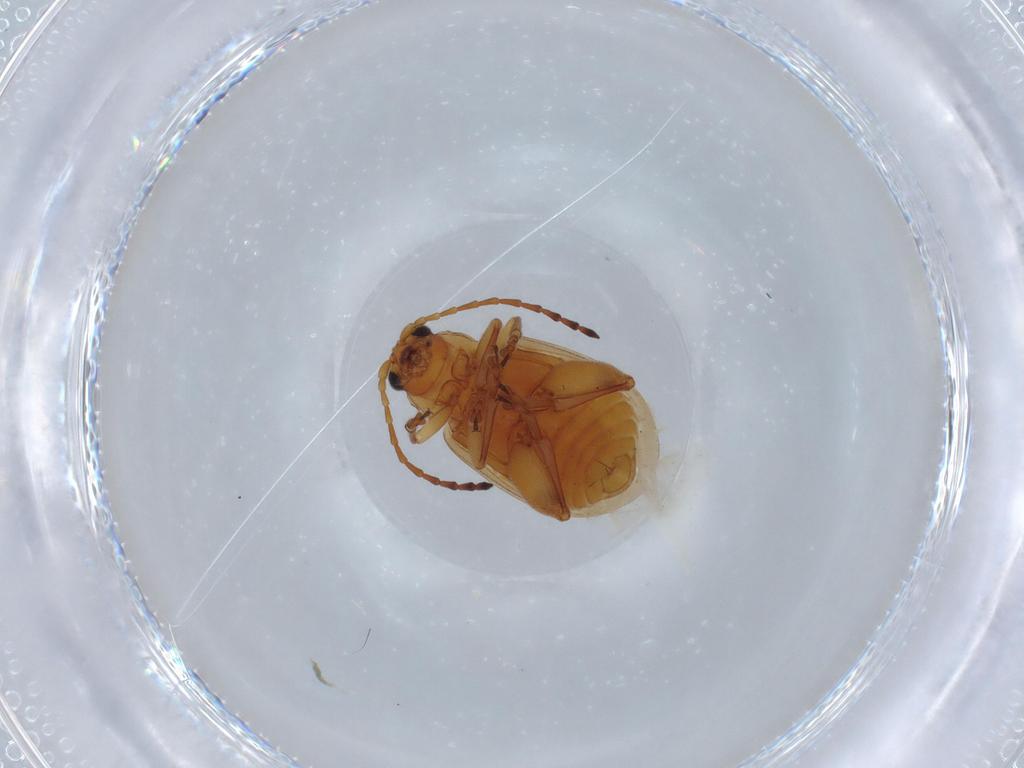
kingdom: Animalia
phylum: Arthropoda
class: Insecta
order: Coleoptera
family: Chrysomelidae
